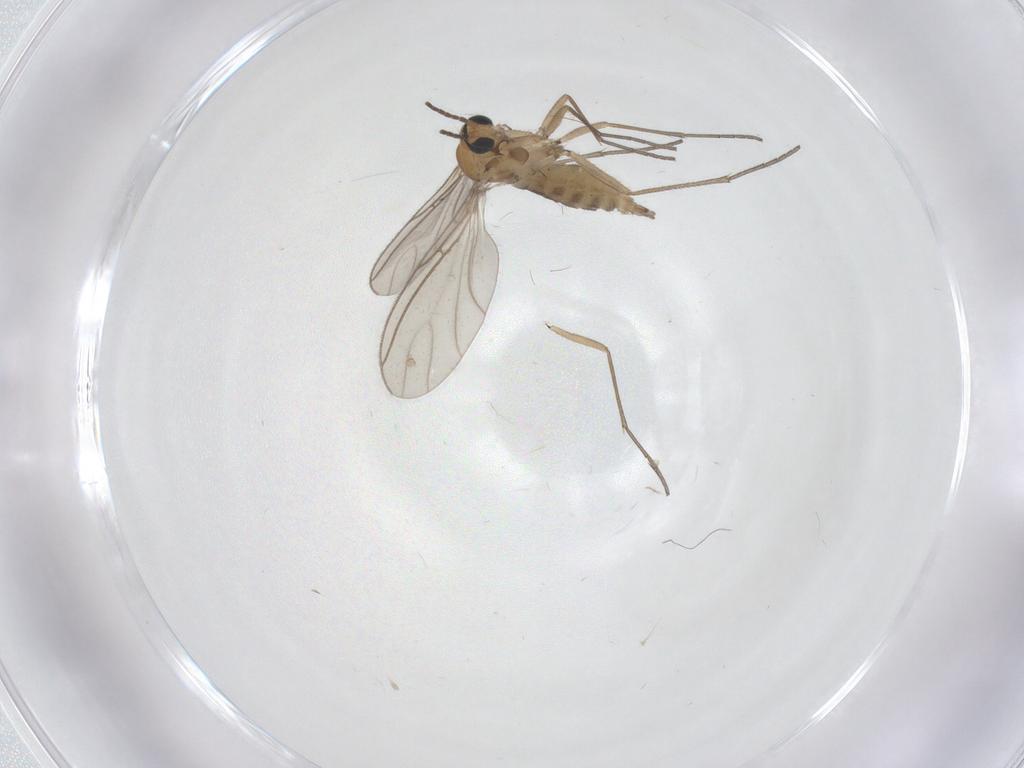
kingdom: Animalia
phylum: Arthropoda
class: Insecta
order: Diptera
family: Sciaridae
